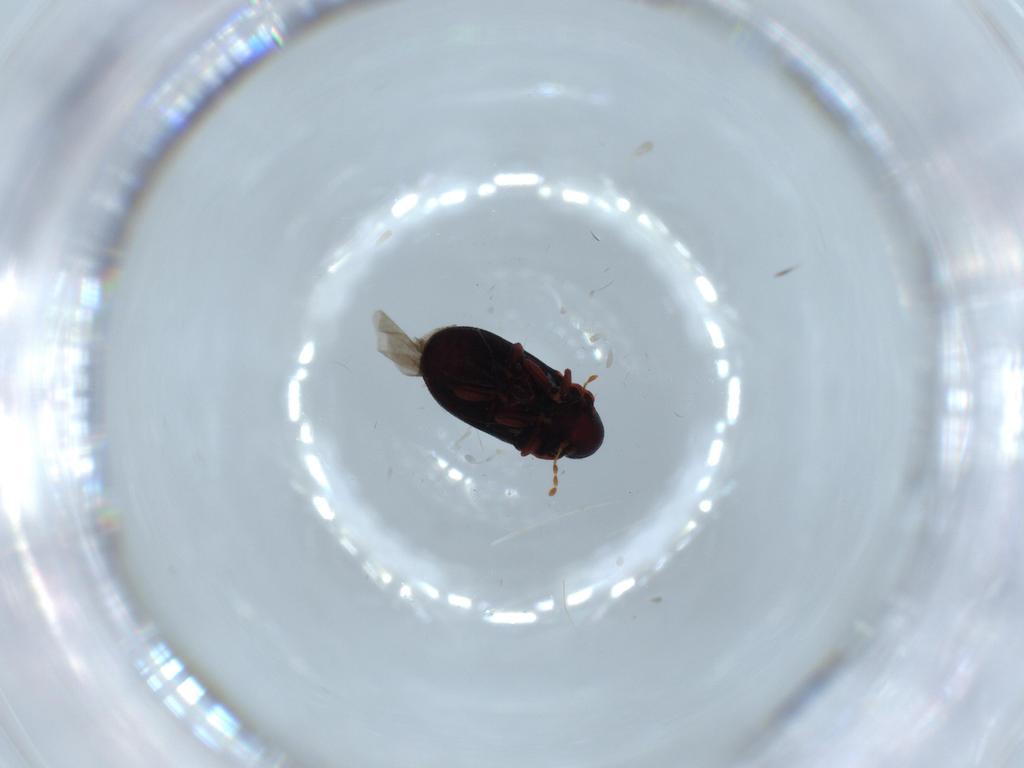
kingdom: Animalia
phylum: Arthropoda
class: Insecta
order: Coleoptera
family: Ptinidae
